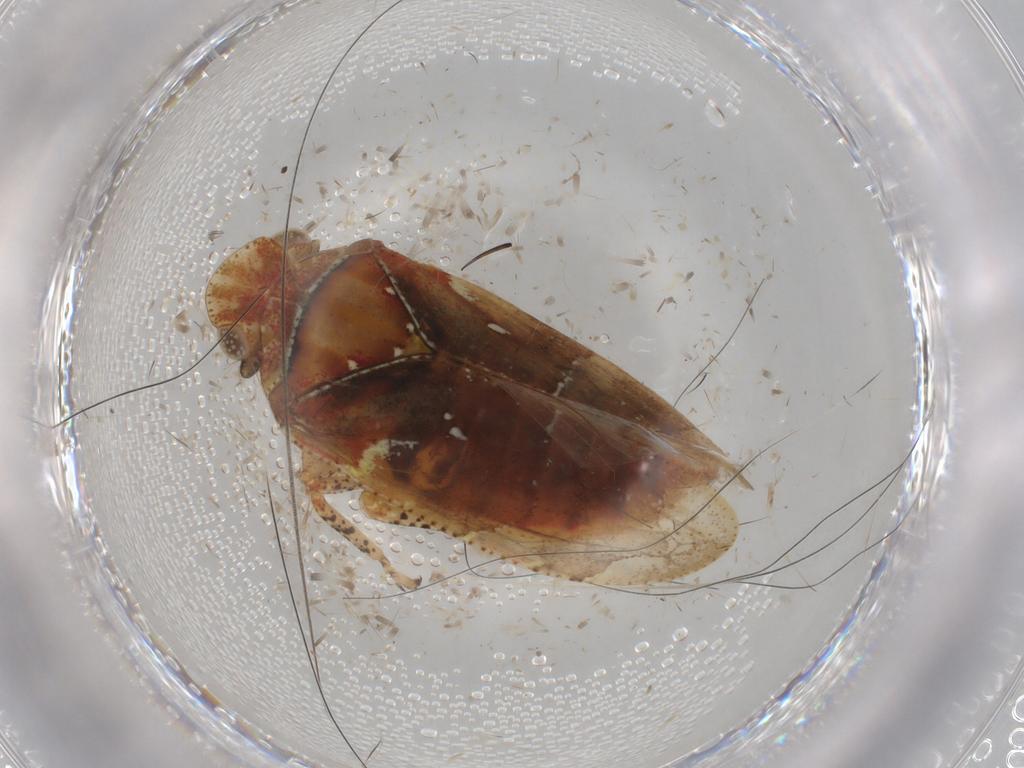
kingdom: Animalia
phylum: Arthropoda
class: Insecta
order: Hemiptera
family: Tettigometridae
